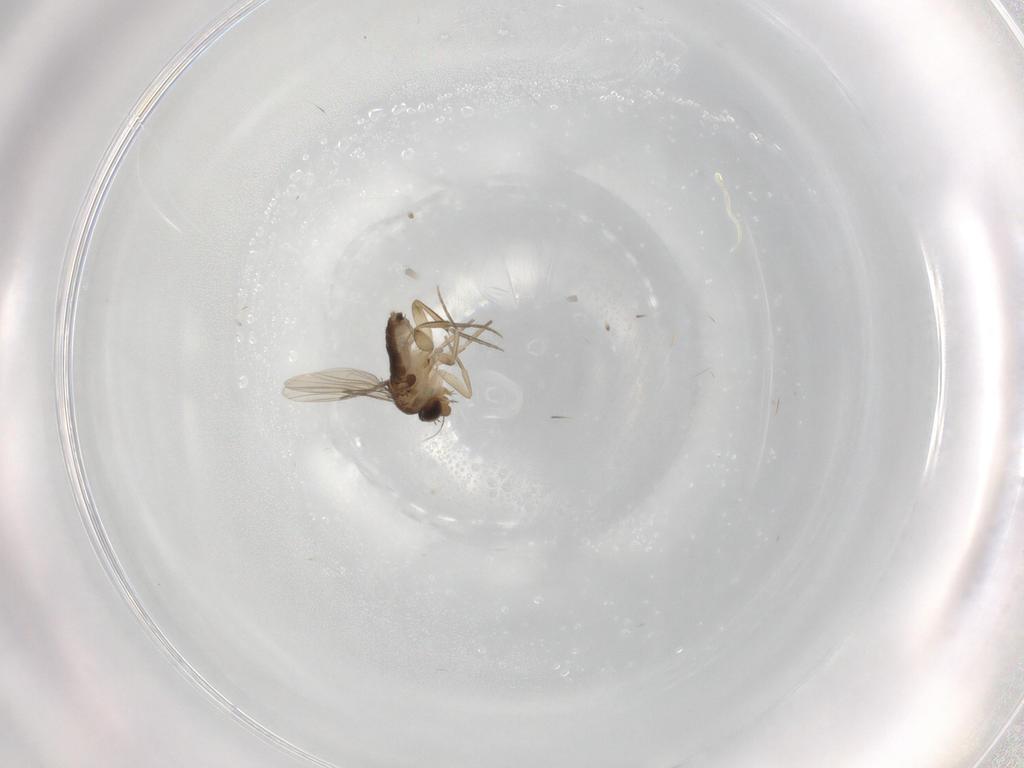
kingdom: Animalia
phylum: Arthropoda
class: Insecta
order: Diptera
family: Phoridae
